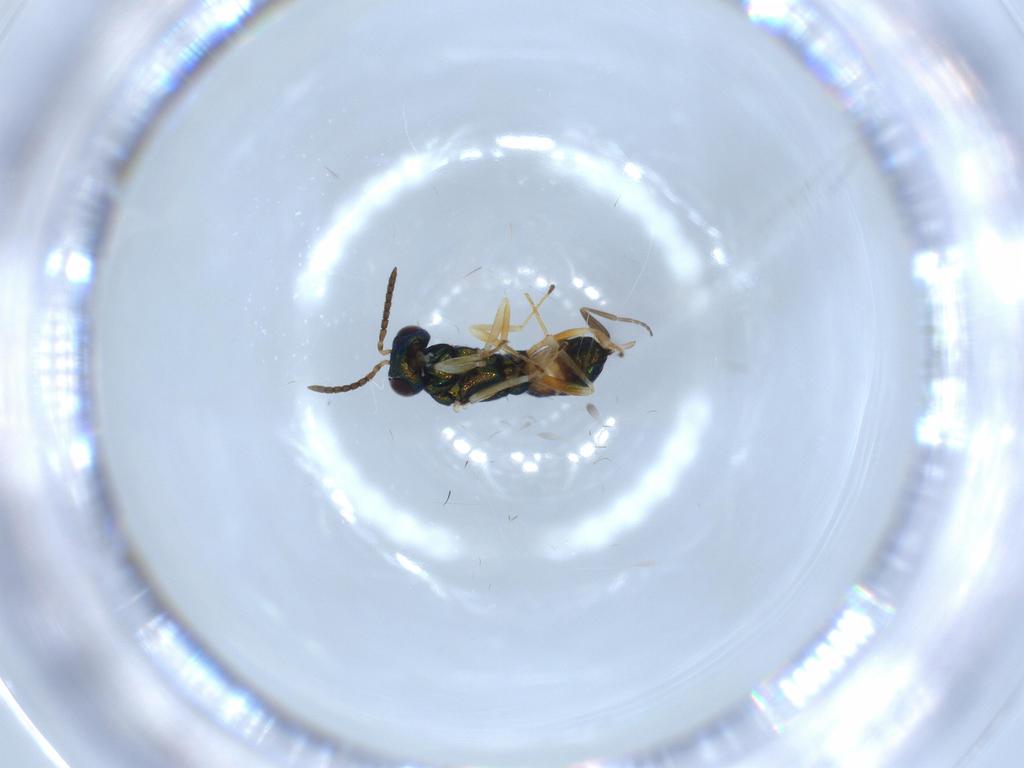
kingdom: Animalia
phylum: Arthropoda
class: Insecta
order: Hymenoptera
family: Pteromalidae
